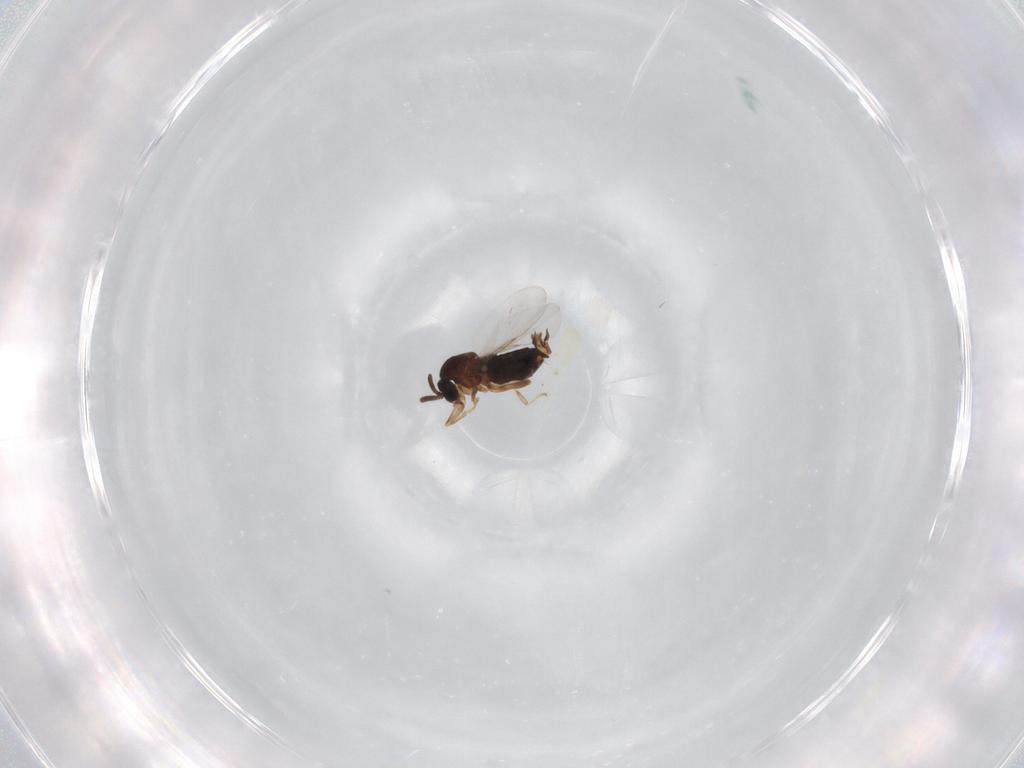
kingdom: Animalia
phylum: Arthropoda
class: Insecta
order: Diptera
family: Scatopsidae
